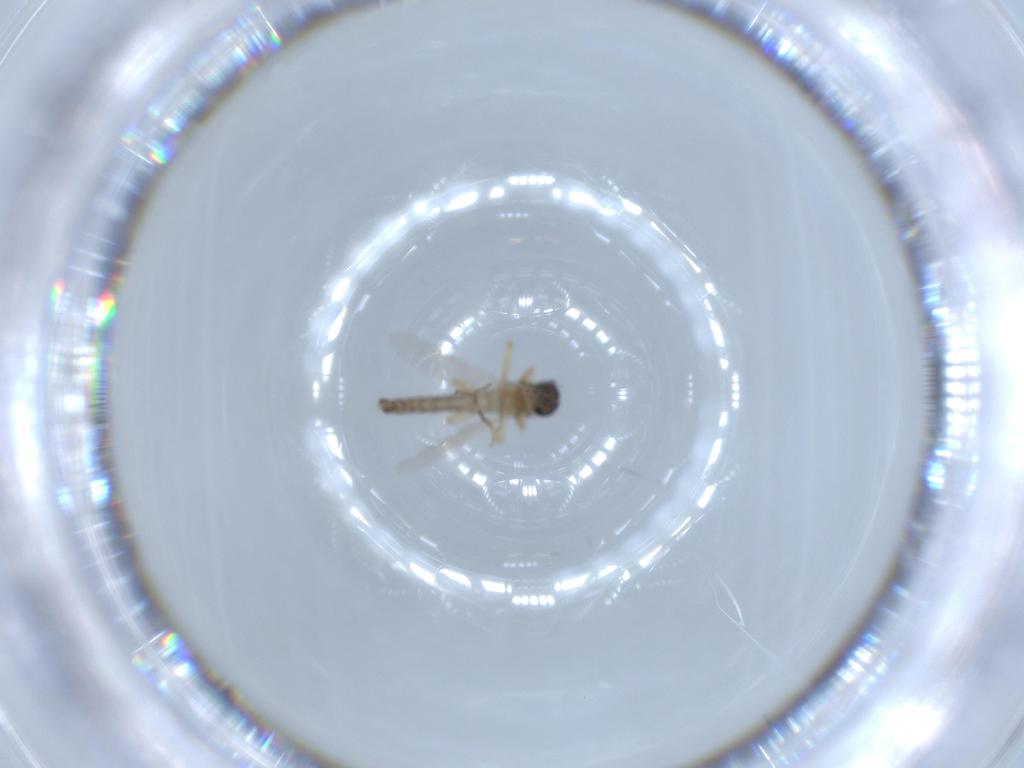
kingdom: Animalia
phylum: Arthropoda
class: Insecta
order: Diptera
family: Ceratopogonidae
